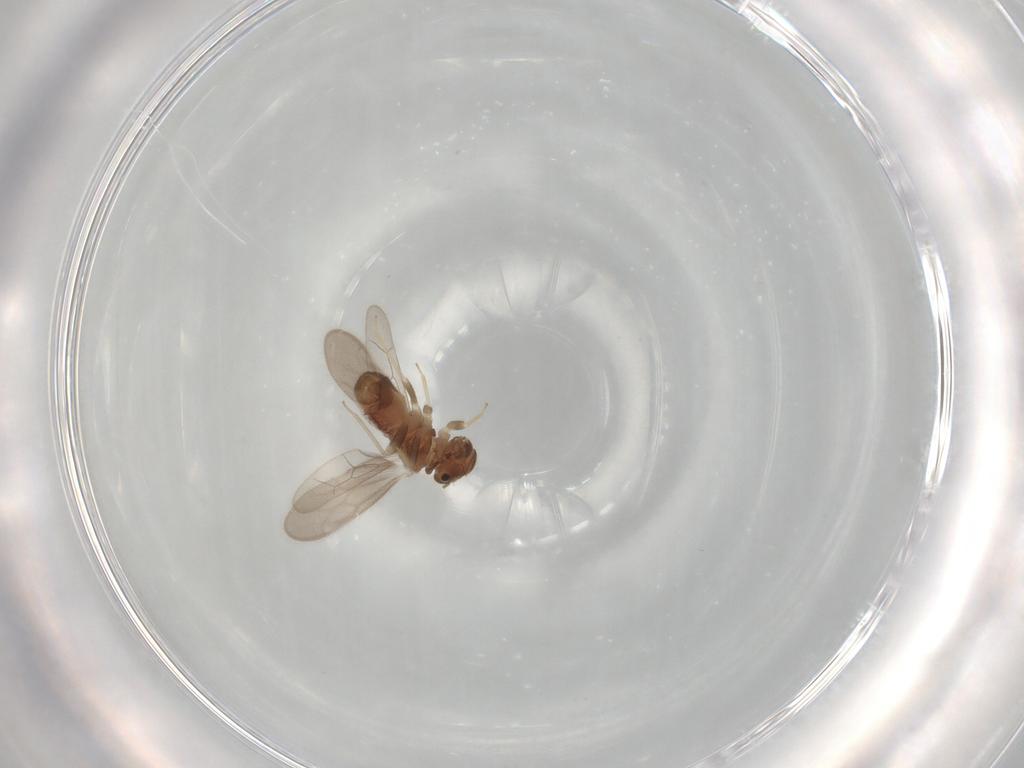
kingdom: Animalia
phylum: Arthropoda
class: Insecta
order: Psocodea
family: Archipsocidae
